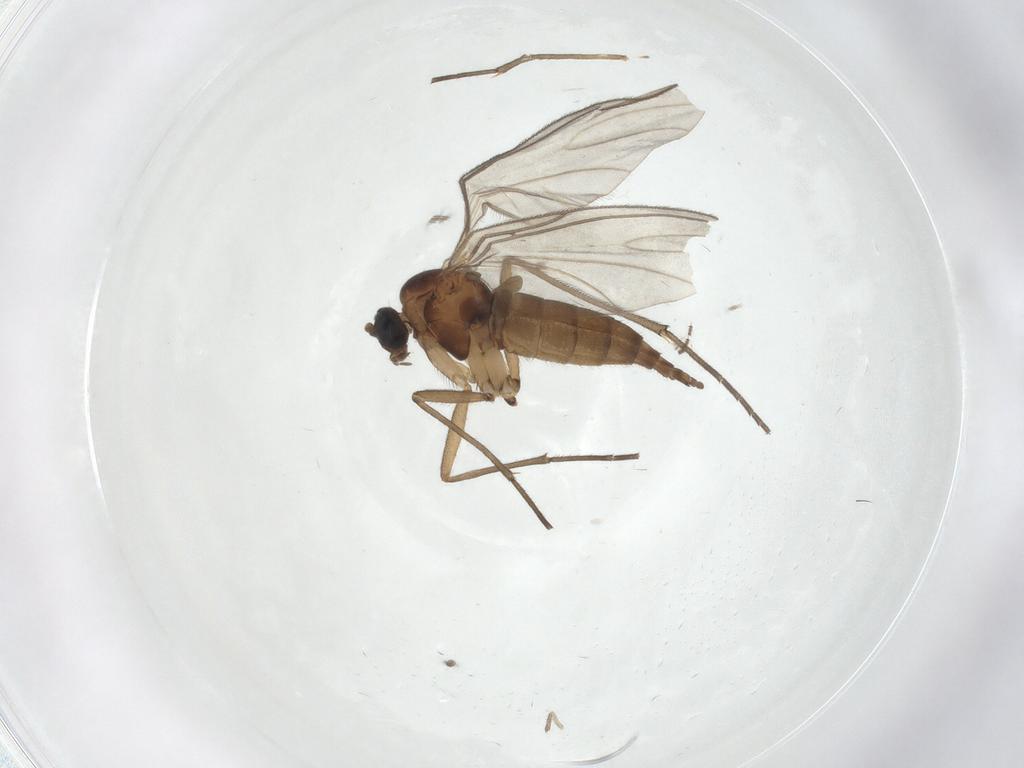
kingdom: Animalia
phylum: Arthropoda
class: Insecta
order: Diptera
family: Sciaridae
